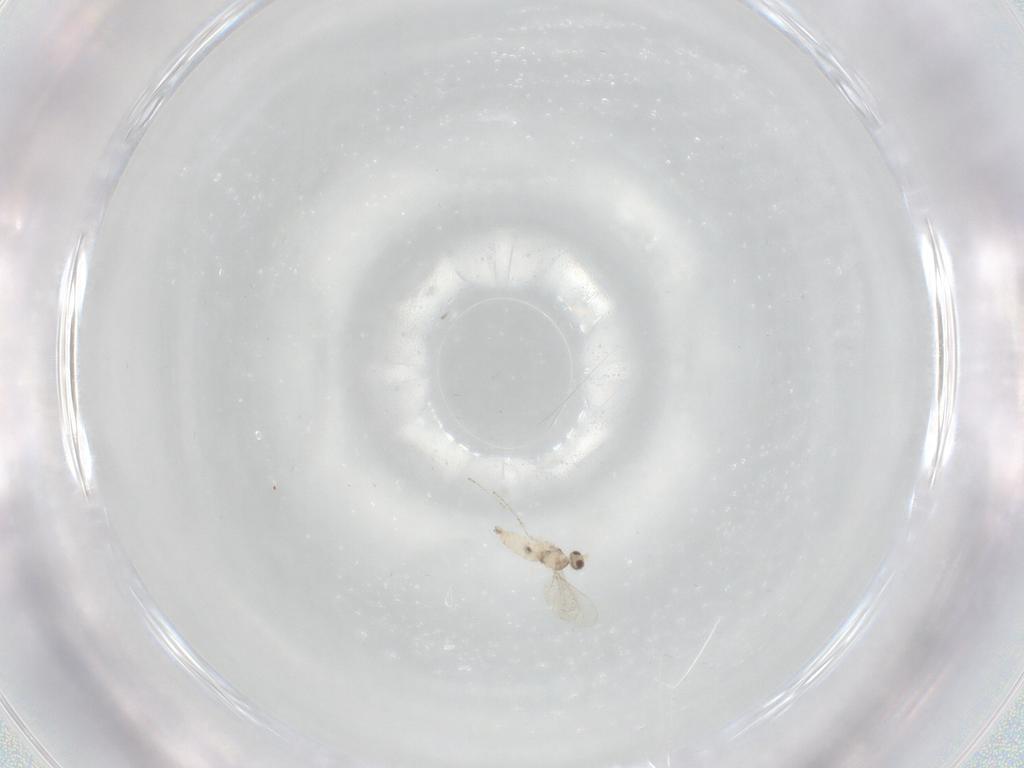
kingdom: Animalia
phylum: Arthropoda
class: Insecta
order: Diptera
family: Cecidomyiidae
